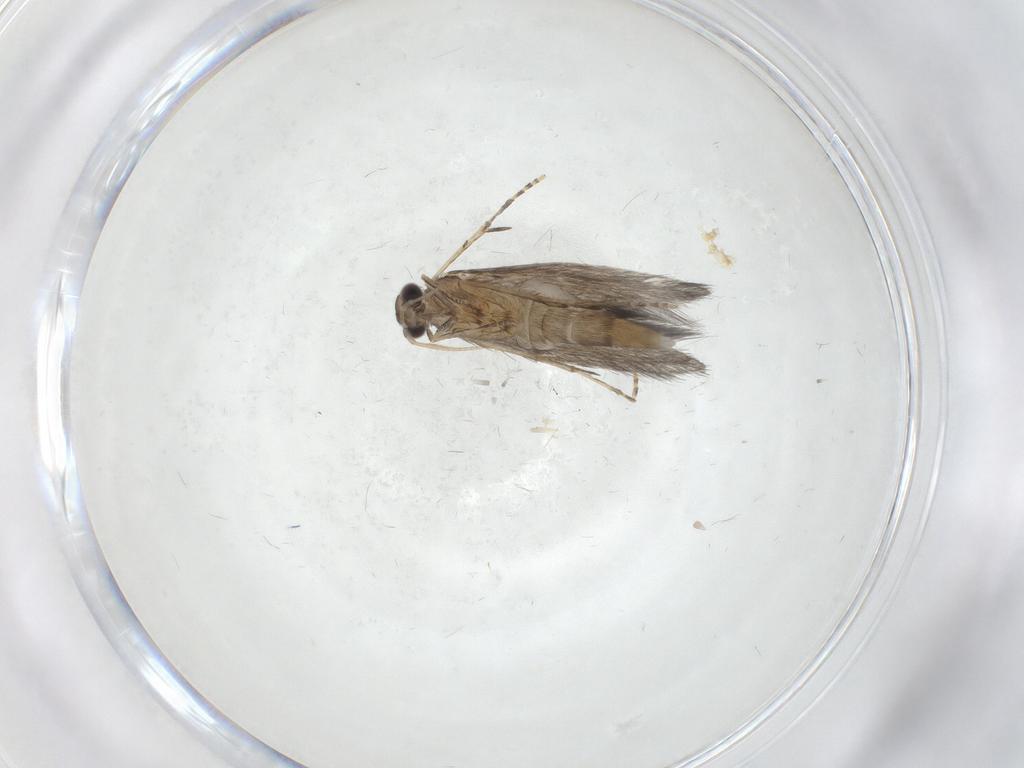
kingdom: Animalia
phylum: Arthropoda
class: Insecta
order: Trichoptera
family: Hydroptilidae
